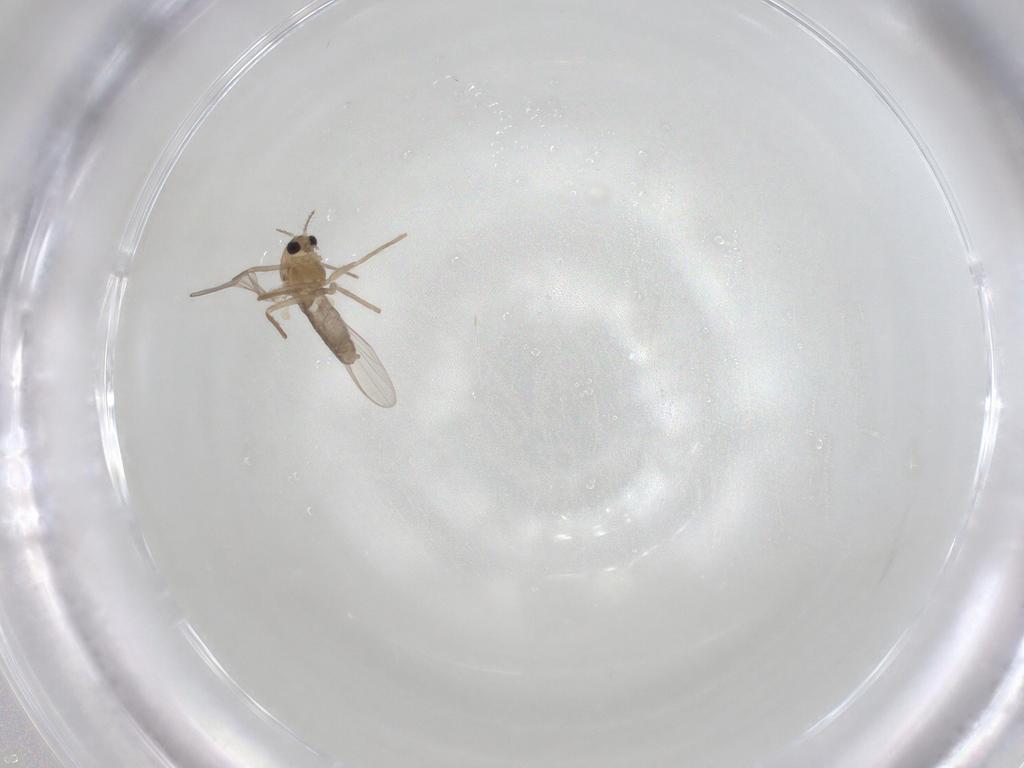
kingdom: Animalia
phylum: Arthropoda
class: Insecta
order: Diptera
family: Chironomidae
